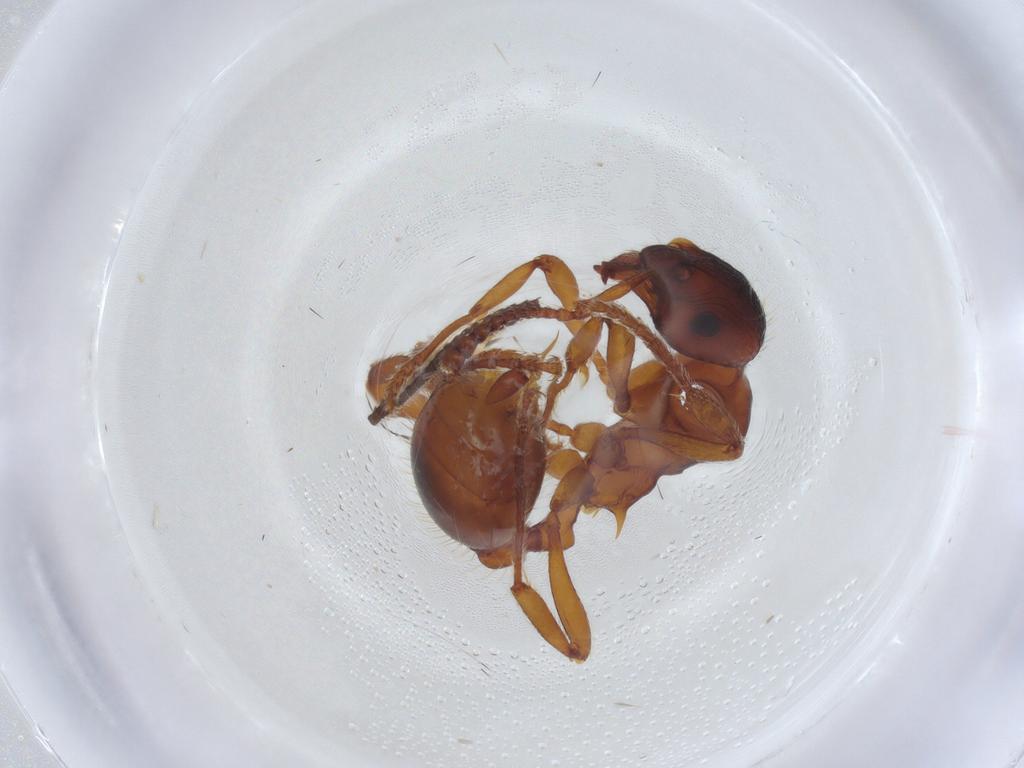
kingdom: Animalia
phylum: Arthropoda
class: Insecta
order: Hymenoptera
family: Formicidae
